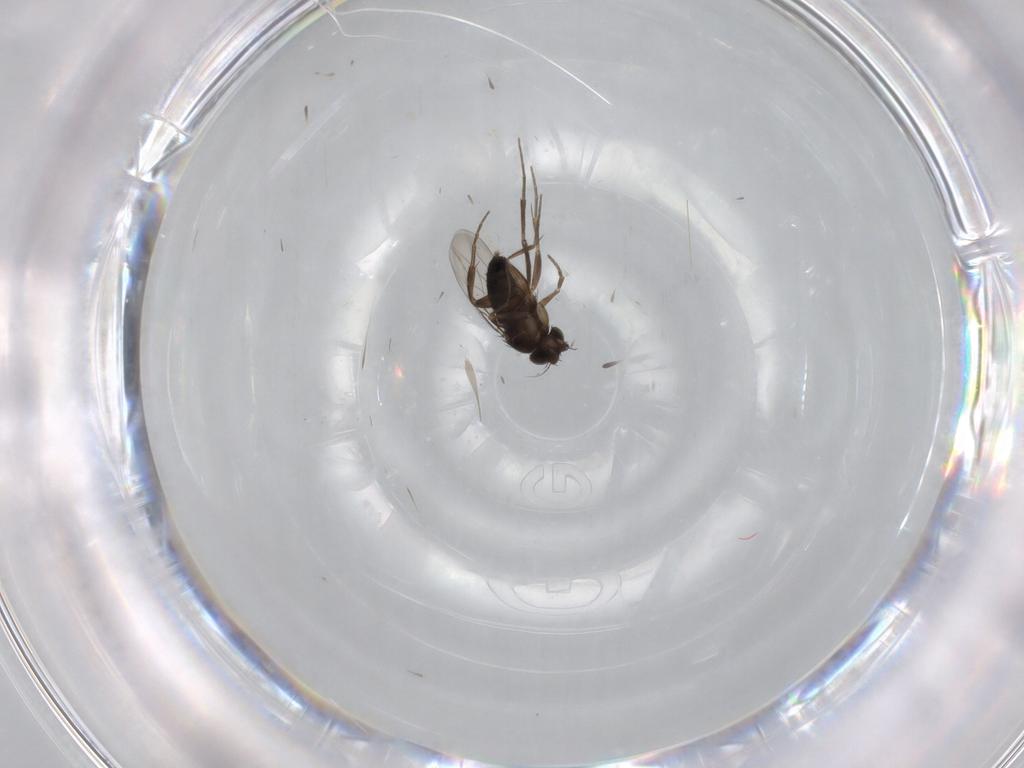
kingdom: Animalia
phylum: Arthropoda
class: Insecta
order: Diptera
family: Phoridae
